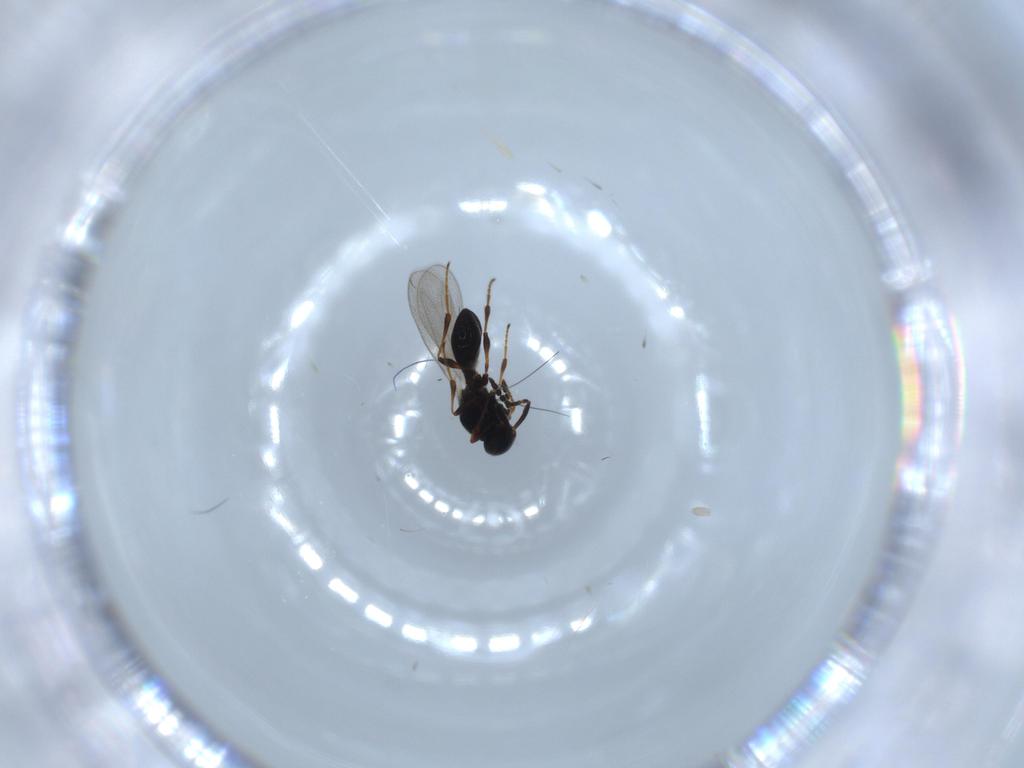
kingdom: Animalia
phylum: Arthropoda
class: Insecta
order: Hymenoptera
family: Platygastridae
